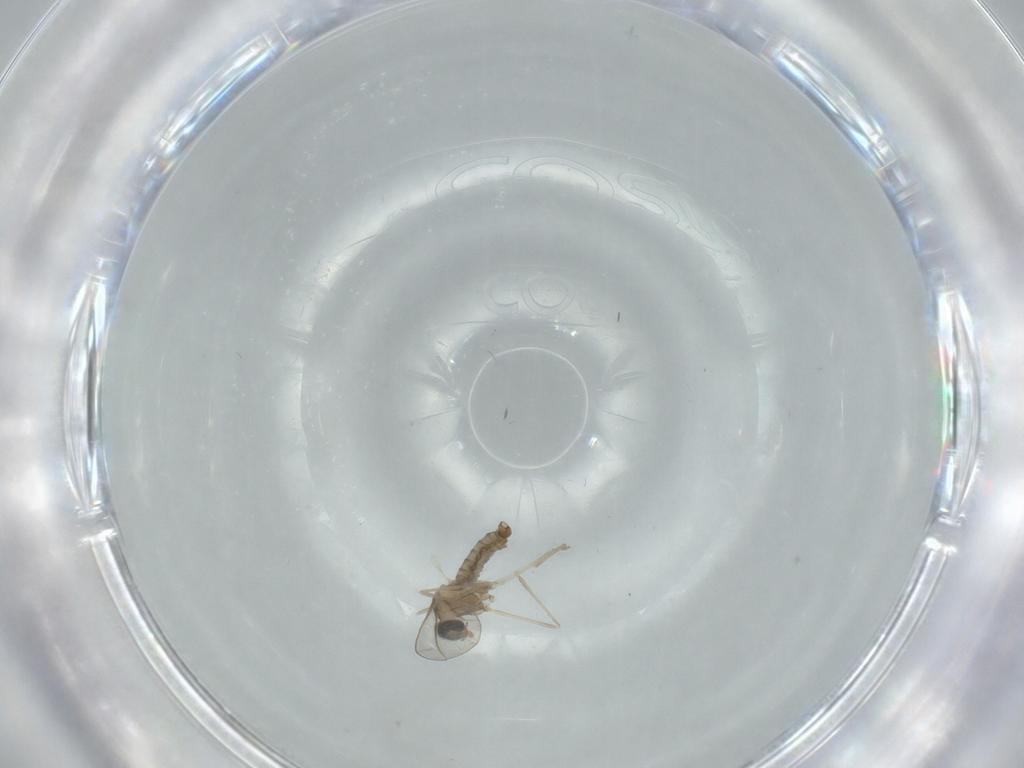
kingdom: Animalia
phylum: Arthropoda
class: Insecta
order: Diptera
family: Cecidomyiidae
